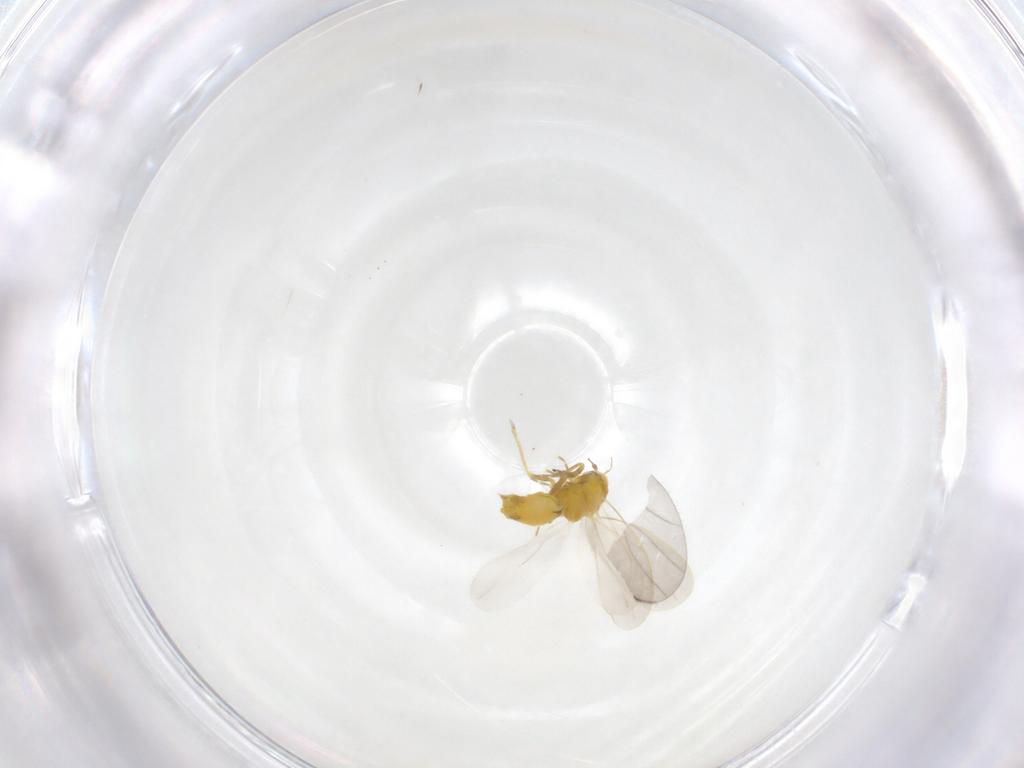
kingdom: Animalia
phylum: Arthropoda
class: Insecta
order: Hemiptera
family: Aleyrodidae
